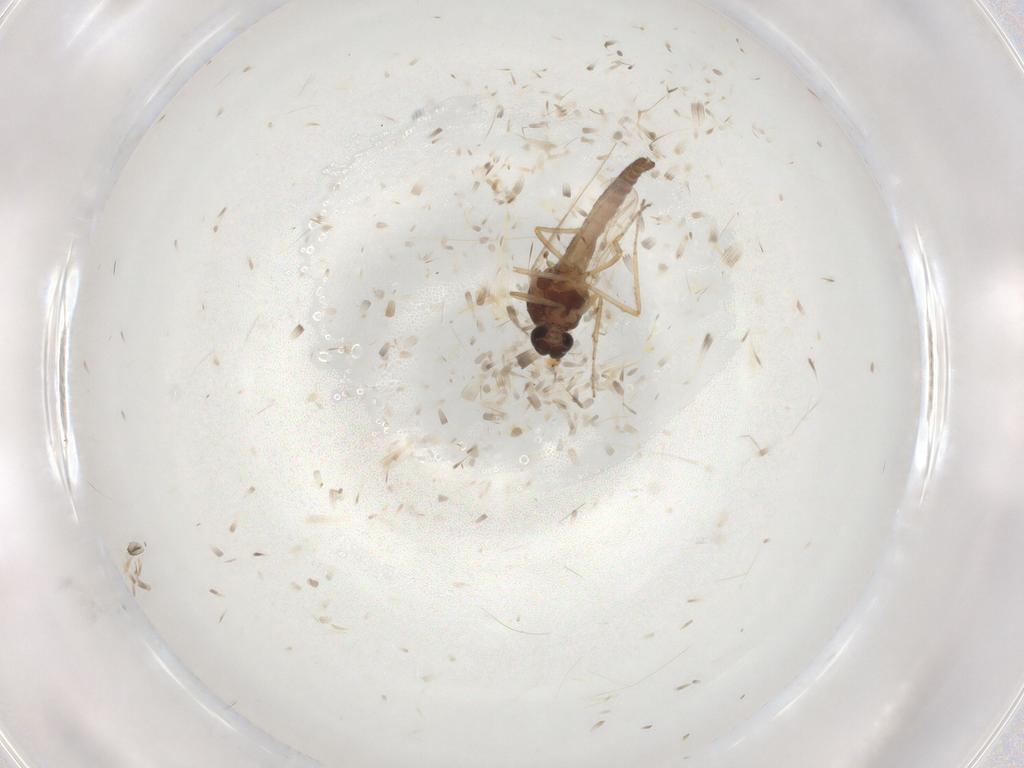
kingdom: Animalia
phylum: Arthropoda
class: Insecta
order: Diptera
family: Ceratopogonidae
